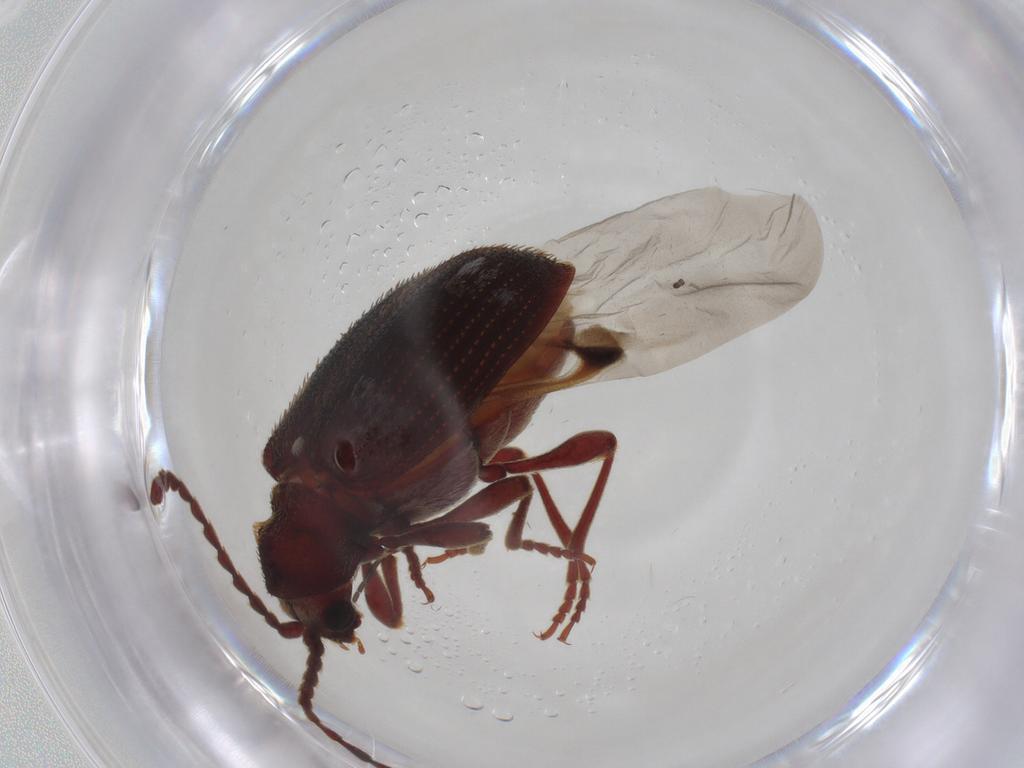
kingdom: Animalia
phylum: Arthropoda
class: Insecta
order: Coleoptera
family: Ptinidae
